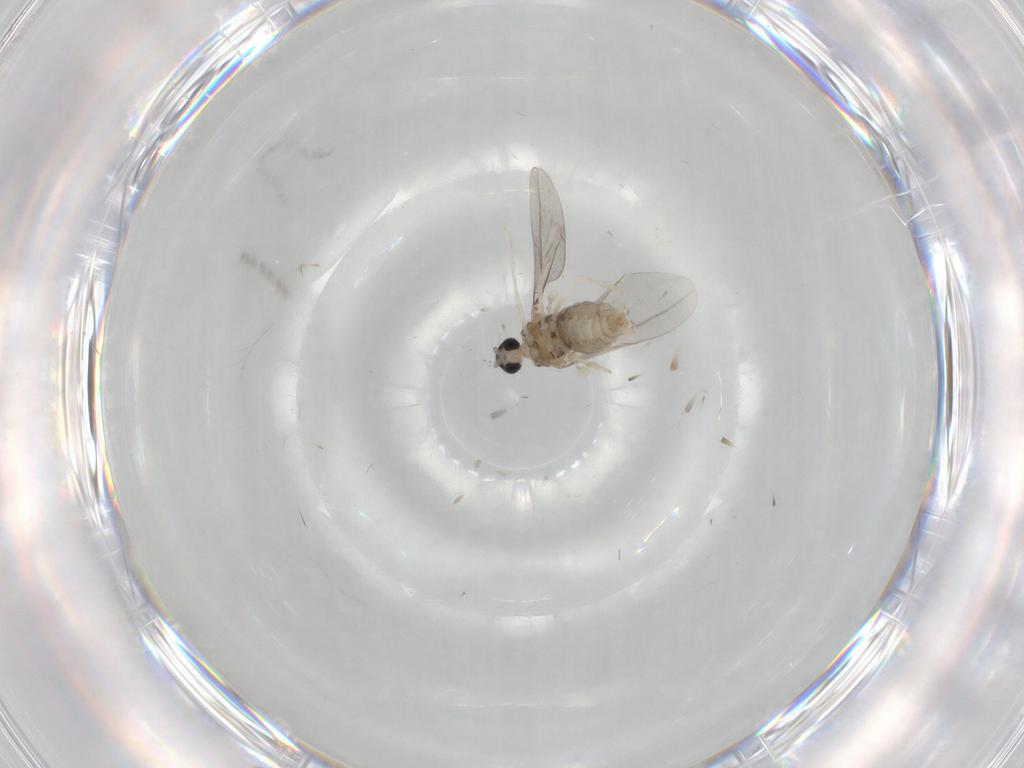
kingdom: Animalia
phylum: Arthropoda
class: Insecta
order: Diptera
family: Cecidomyiidae
